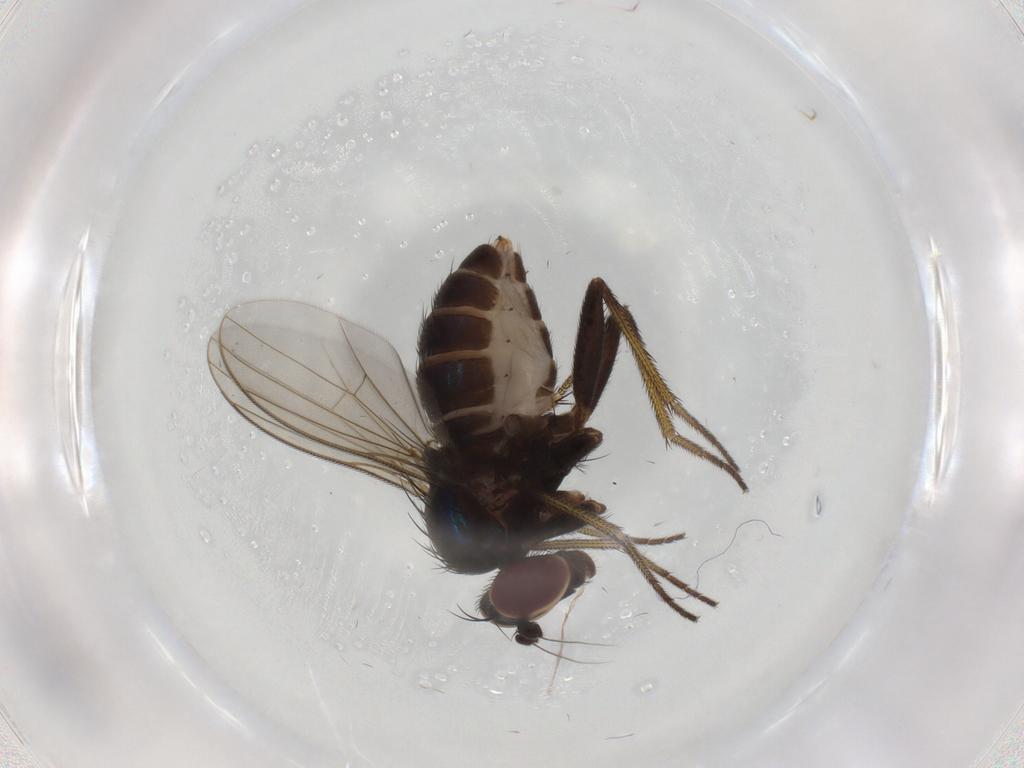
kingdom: Animalia
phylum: Arthropoda
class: Insecta
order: Diptera
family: Dolichopodidae
